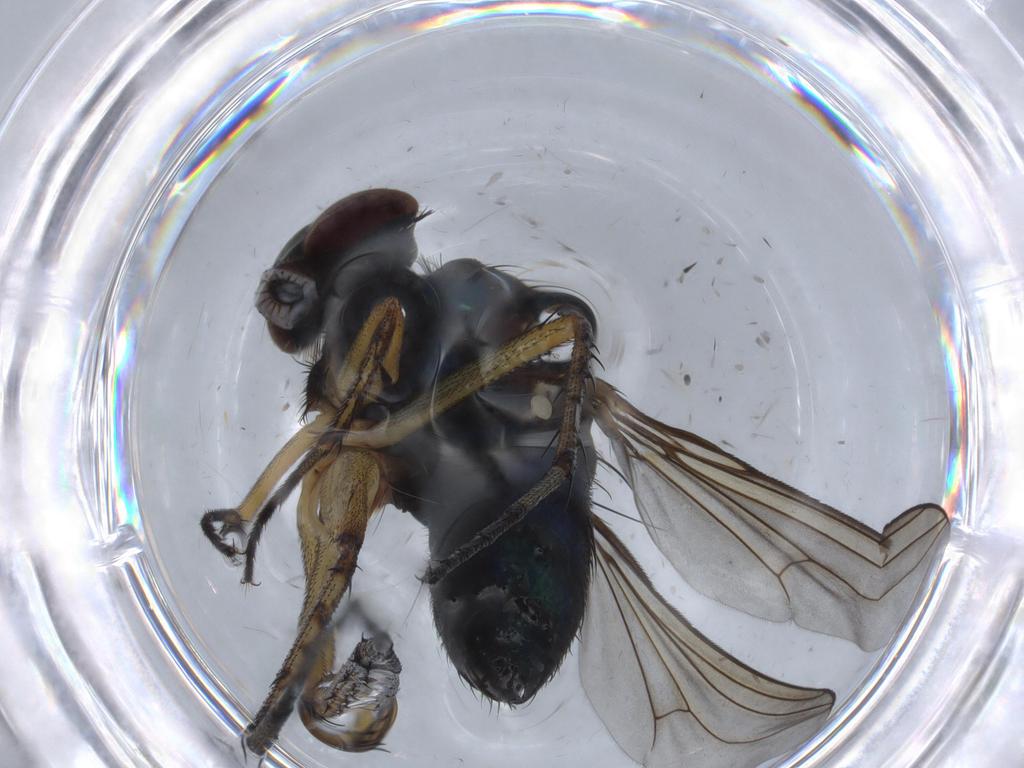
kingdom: Animalia
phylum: Arthropoda
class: Insecta
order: Diptera
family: Dolichopodidae
